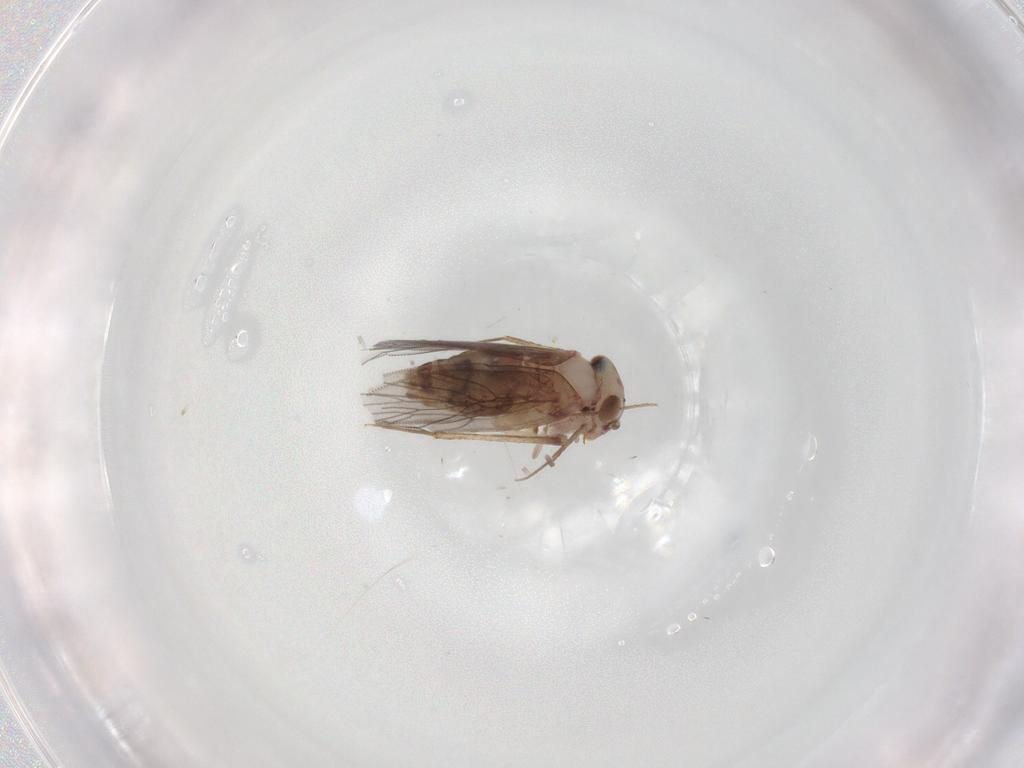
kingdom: Animalia
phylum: Arthropoda
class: Insecta
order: Psocodea
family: Lepidopsocidae
